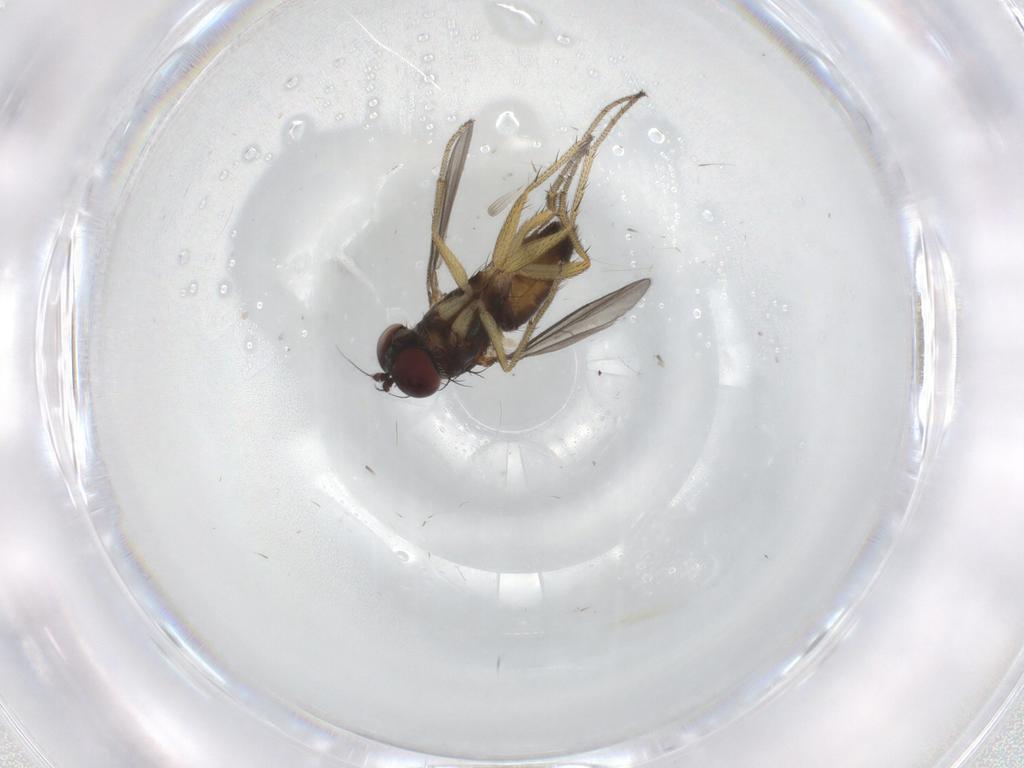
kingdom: Animalia
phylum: Arthropoda
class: Insecta
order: Diptera
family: Dolichopodidae
